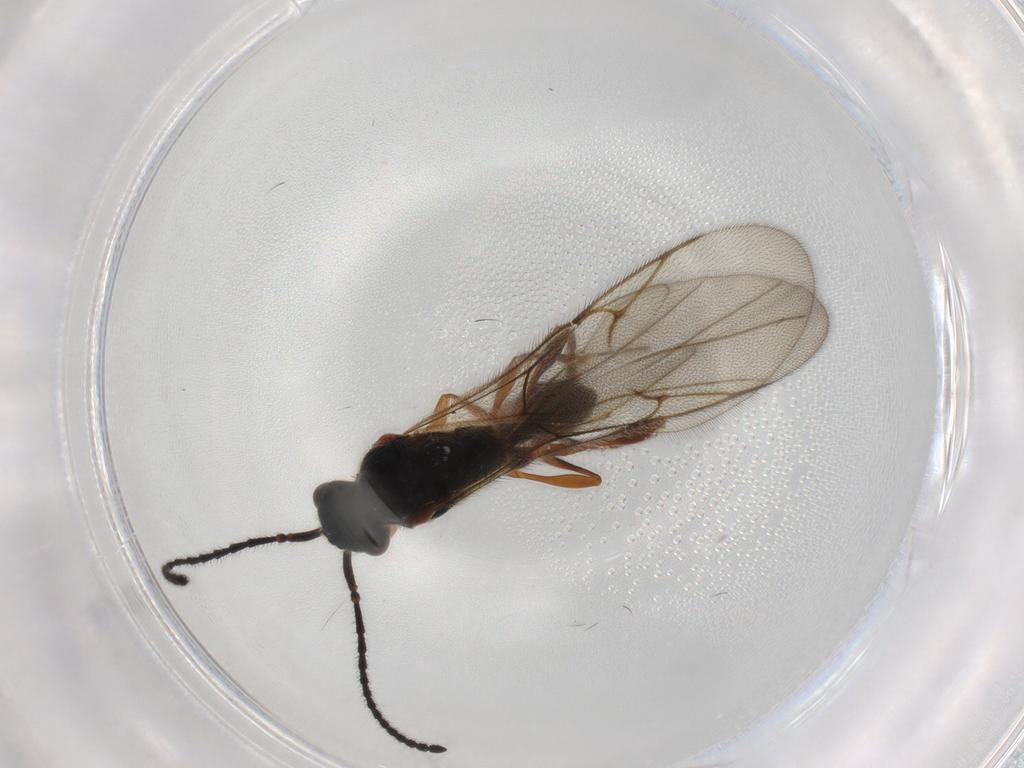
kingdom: Animalia
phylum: Arthropoda
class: Insecta
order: Hymenoptera
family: Diapriidae
